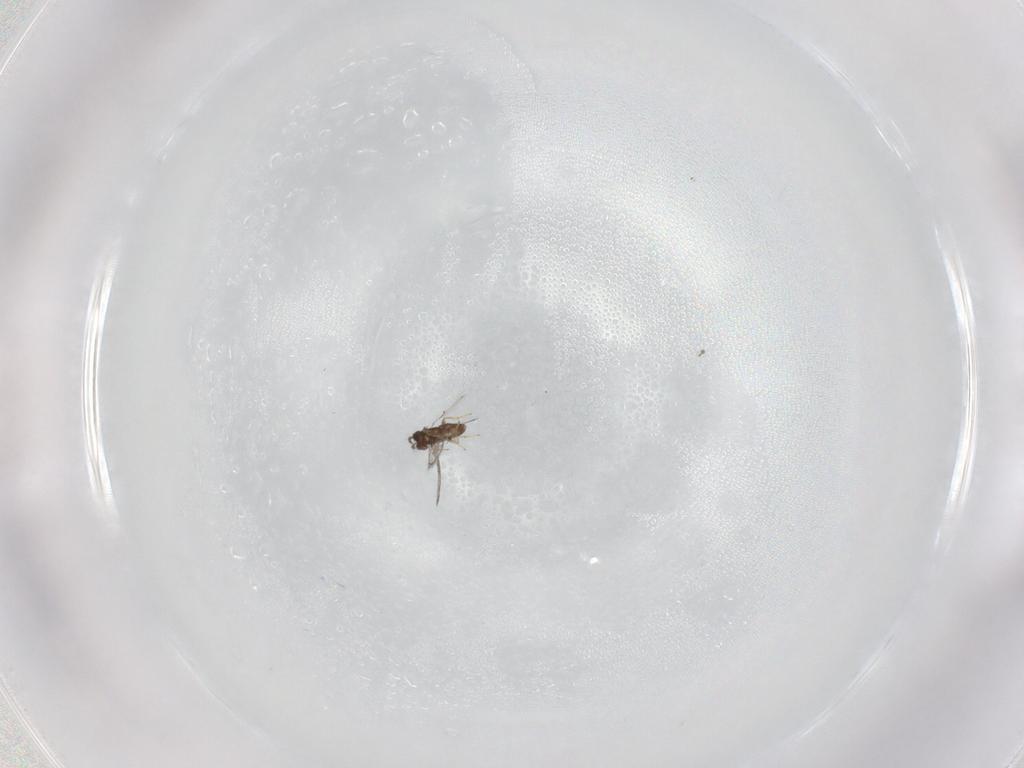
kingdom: Animalia
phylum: Arthropoda
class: Insecta
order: Hymenoptera
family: Trichogrammatidae
